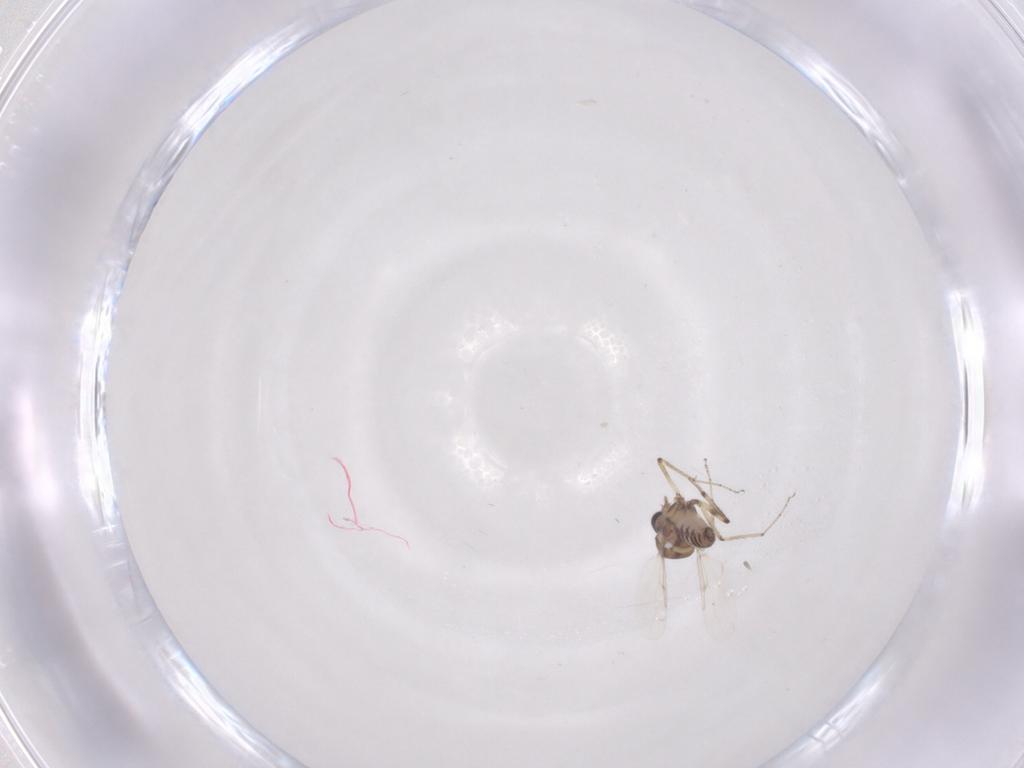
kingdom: Animalia
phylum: Arthropoda
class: Insecta
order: Diptera
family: Ceratopogonidae
